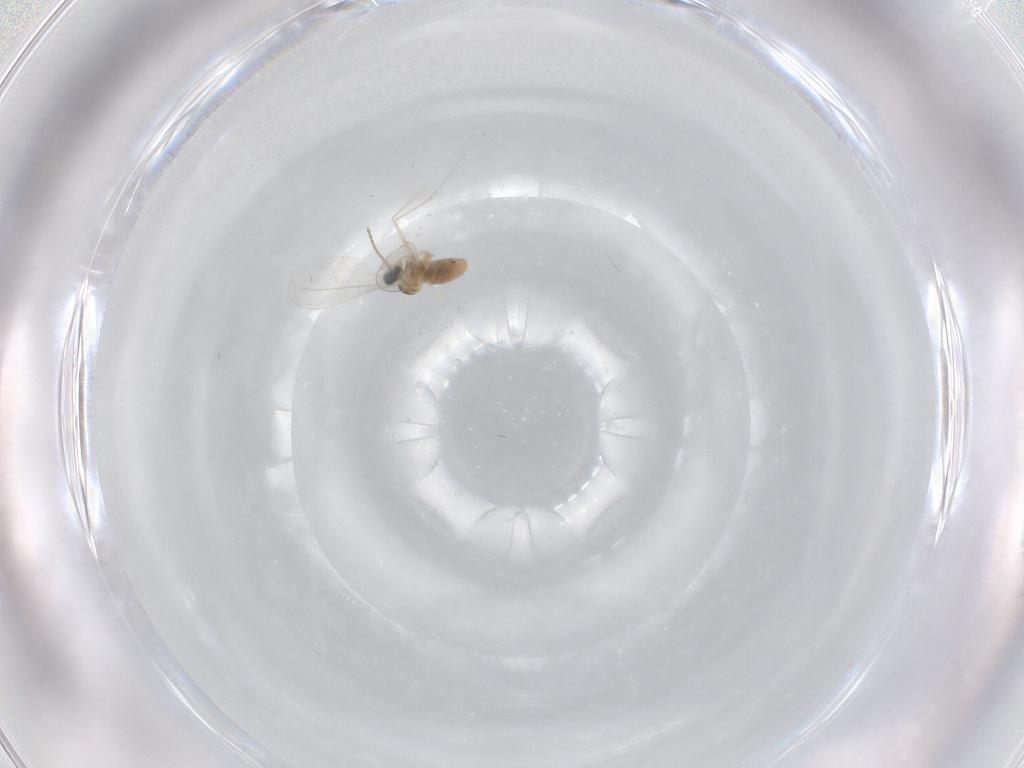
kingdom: Animalia
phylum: Arthropoda
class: Insecta
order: Diptera
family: Cecidomyiidae
